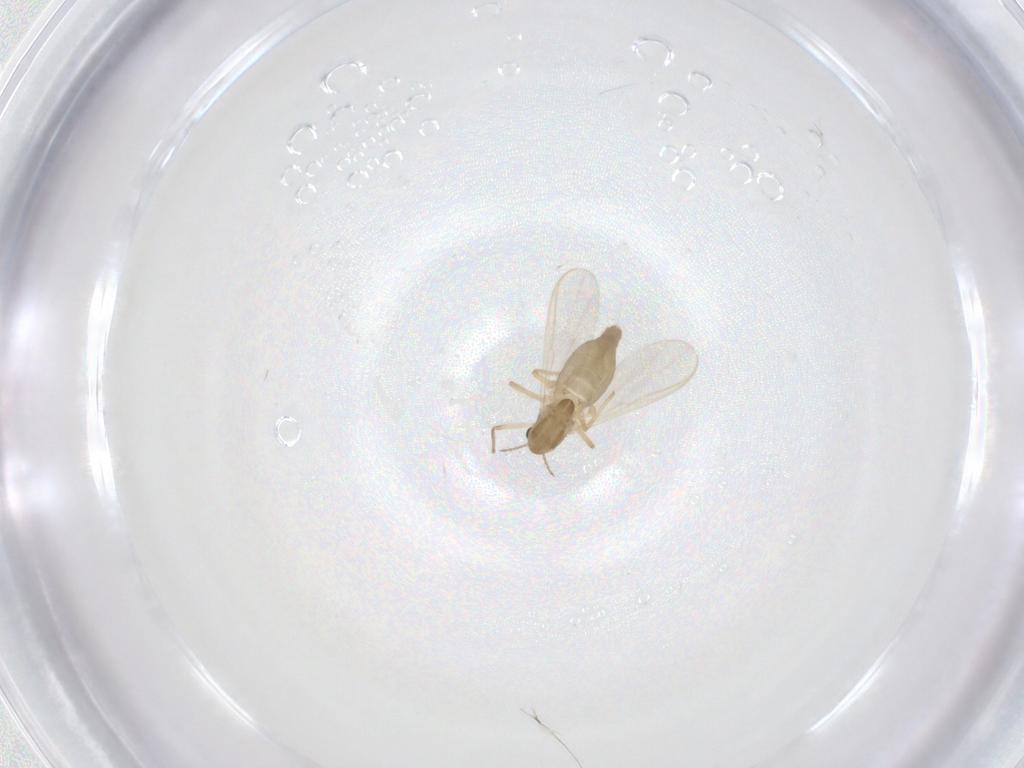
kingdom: Animalia
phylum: Arthropoda
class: Insecta
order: Diptera
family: Chironomidae
